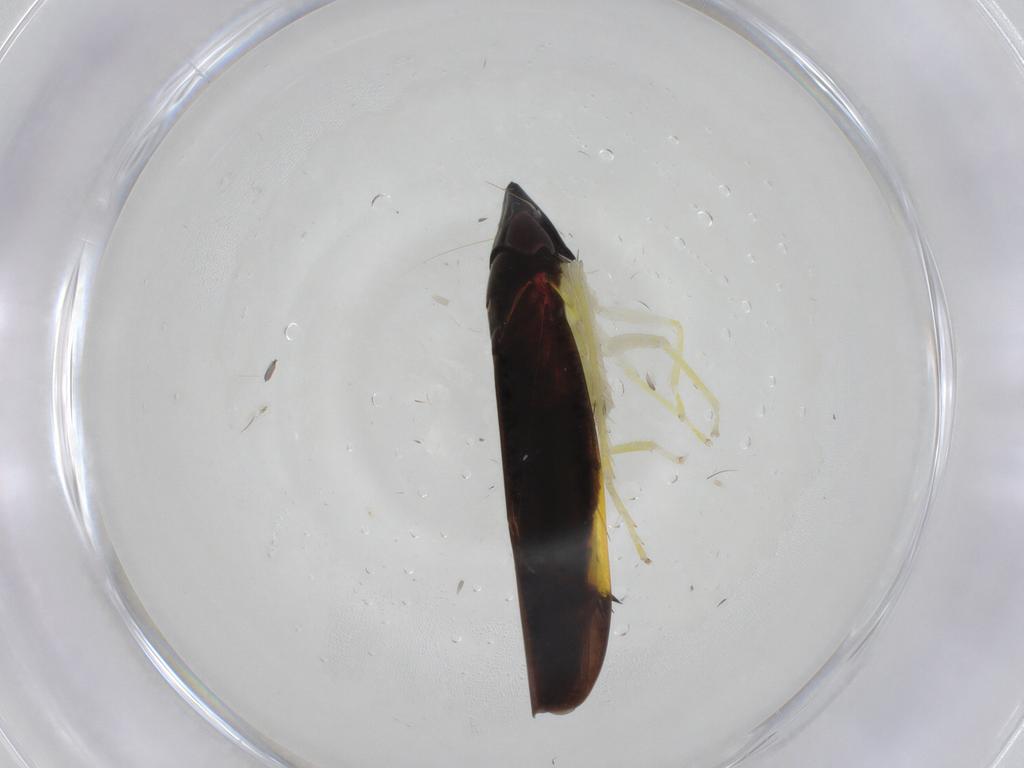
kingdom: Animalia
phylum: Arthropoda
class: Insecta
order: Hemiptera
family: Cicadellidae
